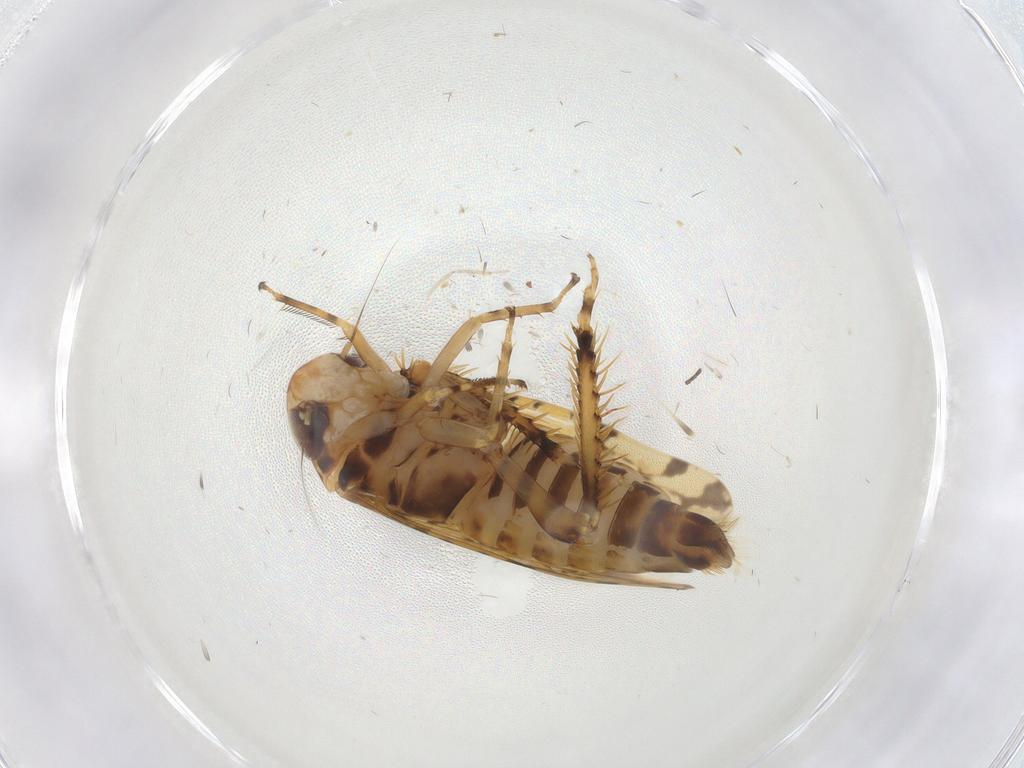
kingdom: Animalia
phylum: Arthropoda
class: Insecta
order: Hemiptera
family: Cicadellidae
